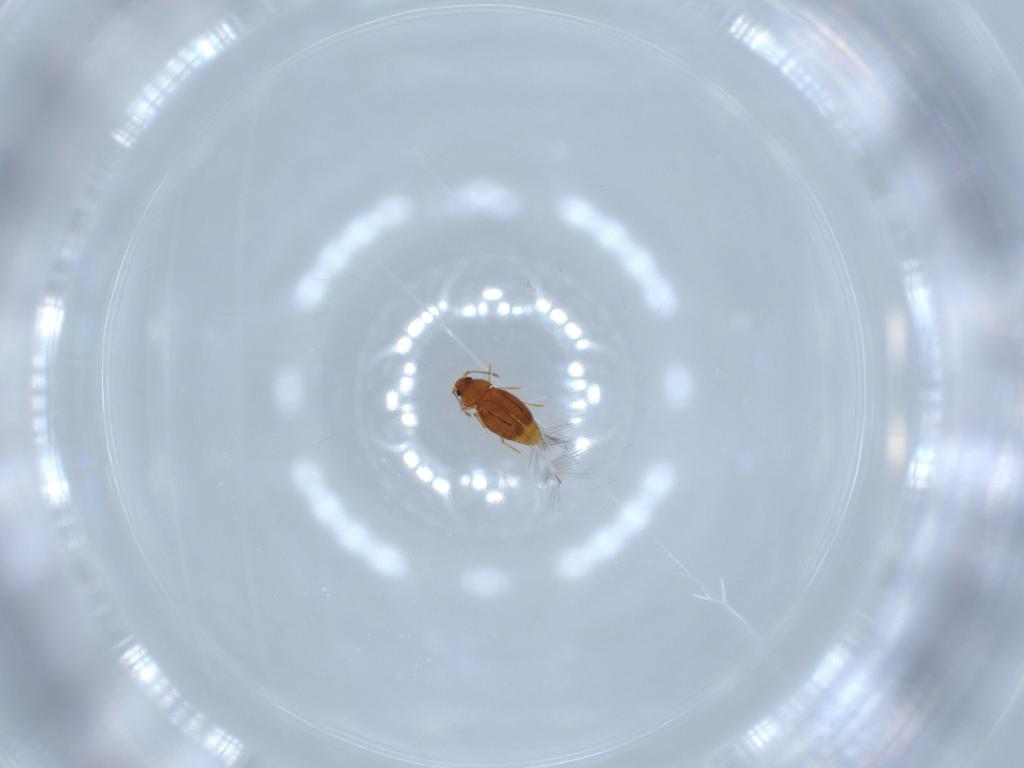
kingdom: Animalia
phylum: Arthropoda
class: Insecta
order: Coleoptera
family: Ptiliidae
